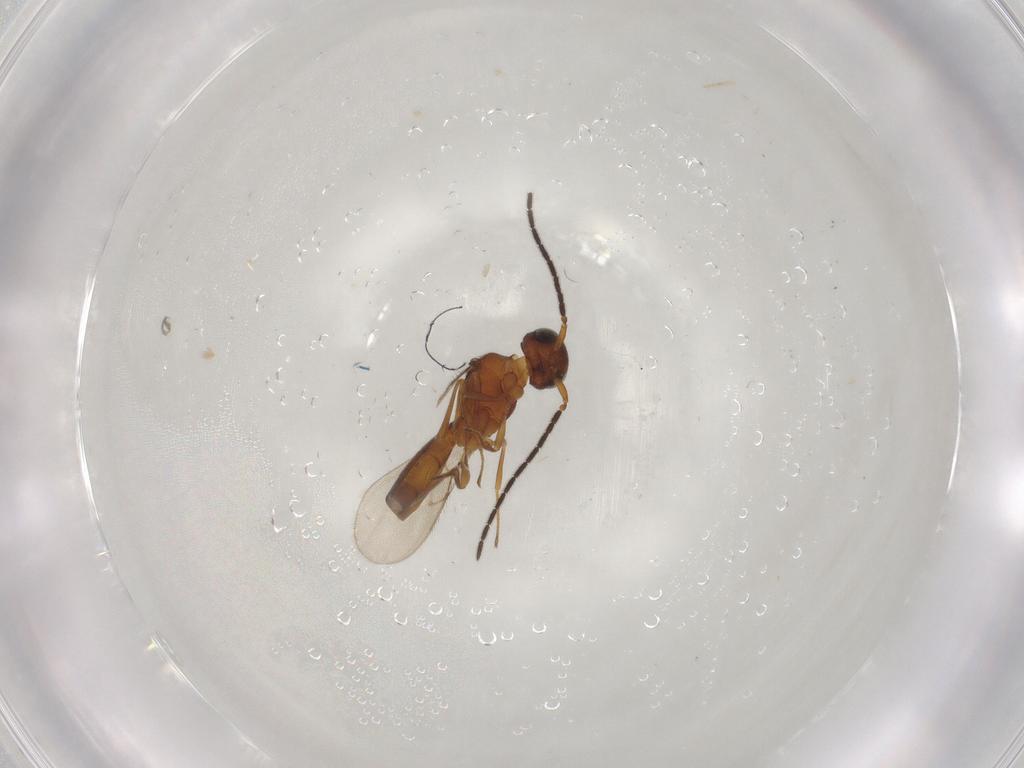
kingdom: Animalia
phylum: Arthropoda
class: Insecta
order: Hymenoptera
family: Scelionidae
